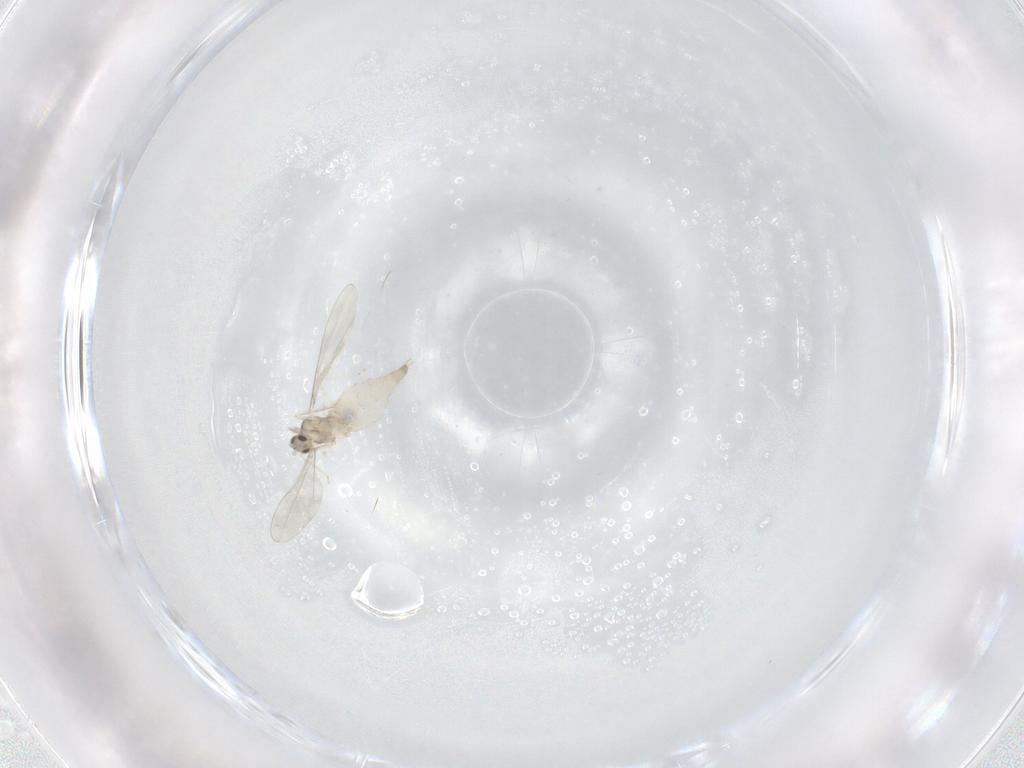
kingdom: Animalia
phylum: Arthropoda
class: Insecta
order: Diptera
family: Cecidomyiidae
